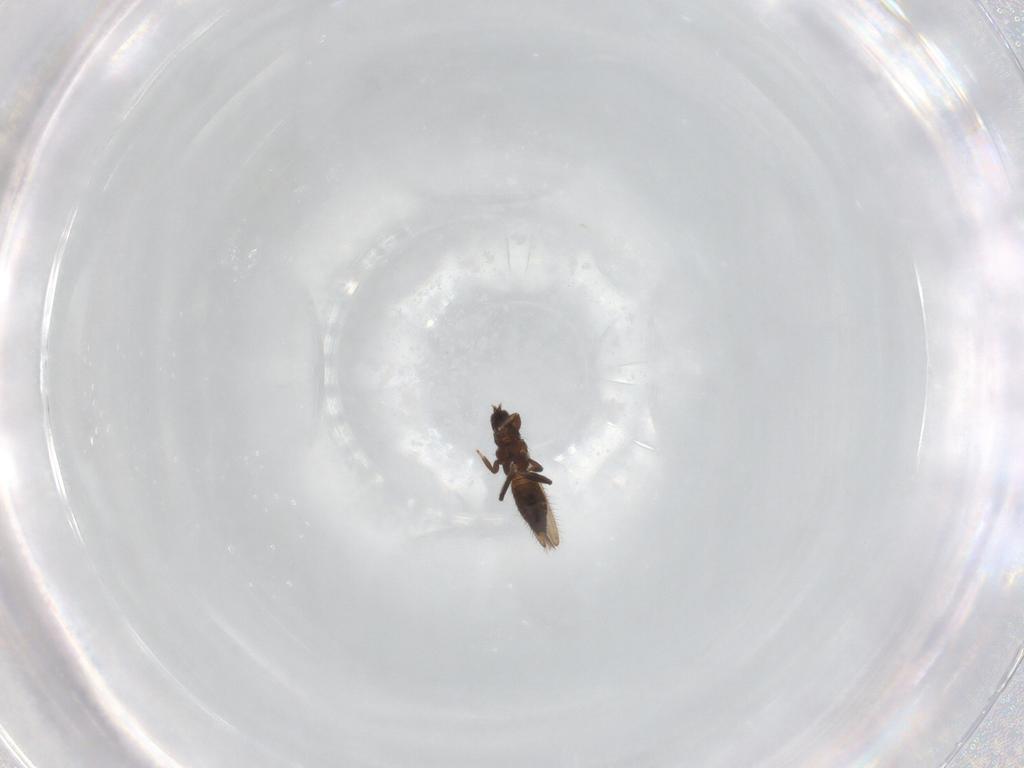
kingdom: Animalia
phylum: Arthropoda
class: Insecta
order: Thysanoptera
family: Melanthripidae
